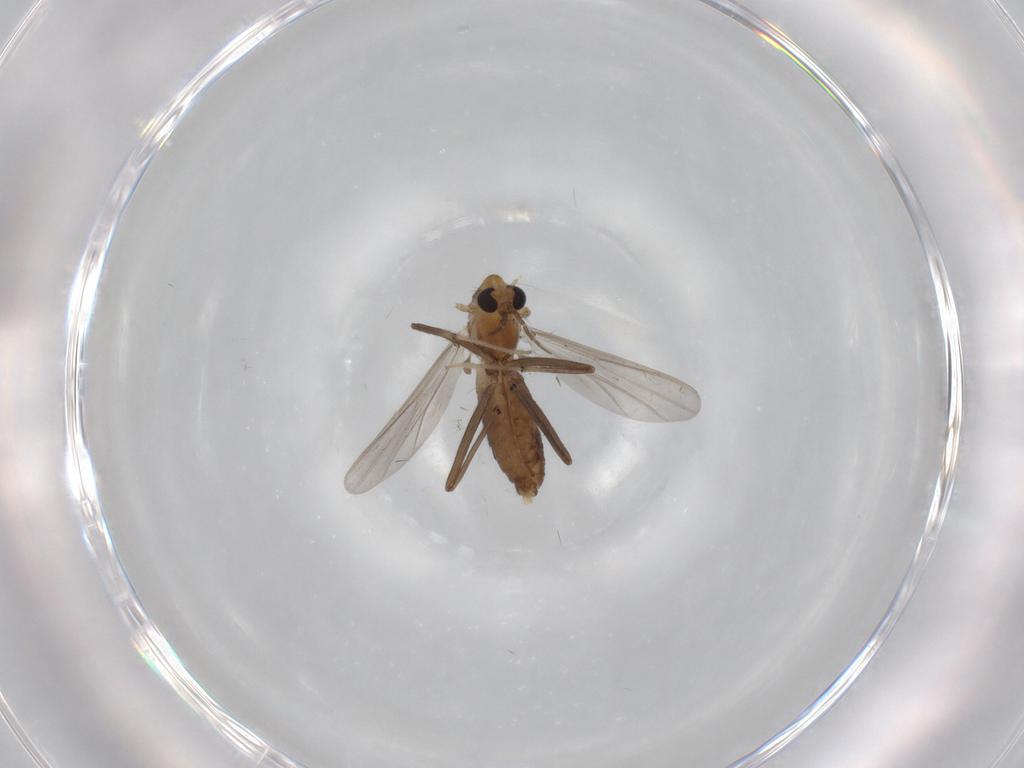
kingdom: Animalia
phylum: Arthropoda
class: Insecta
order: Diptera
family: Chironomidae
